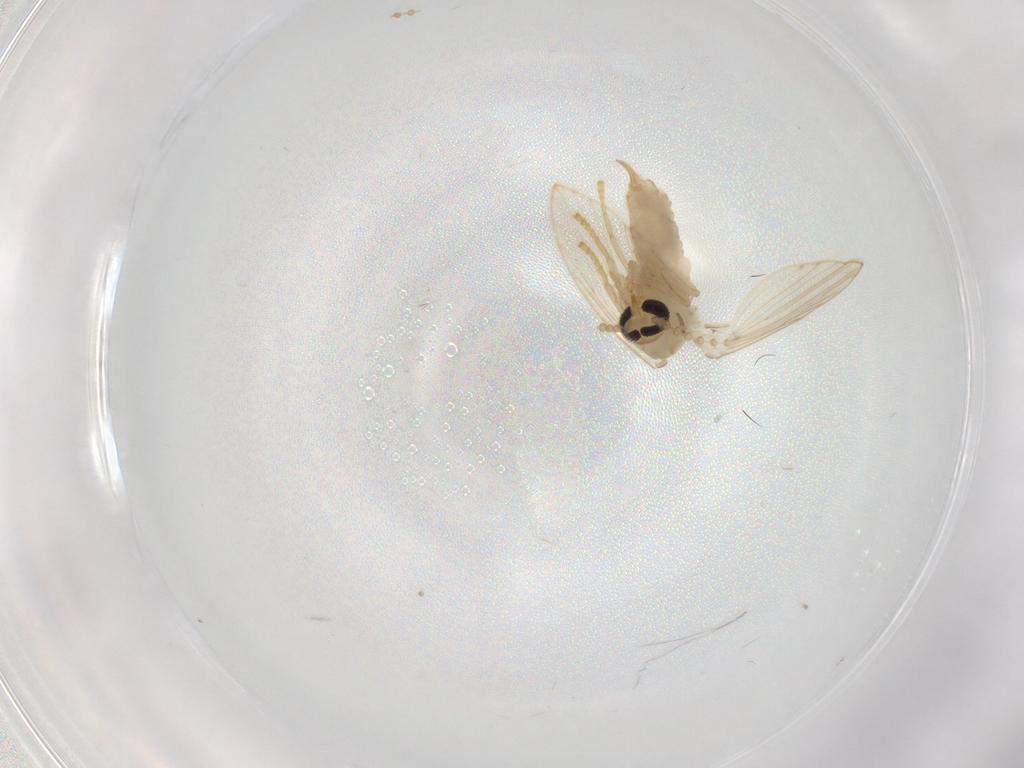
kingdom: Animalia
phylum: Arthropoda
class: Insecta
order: Diptera
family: Psychodidae
